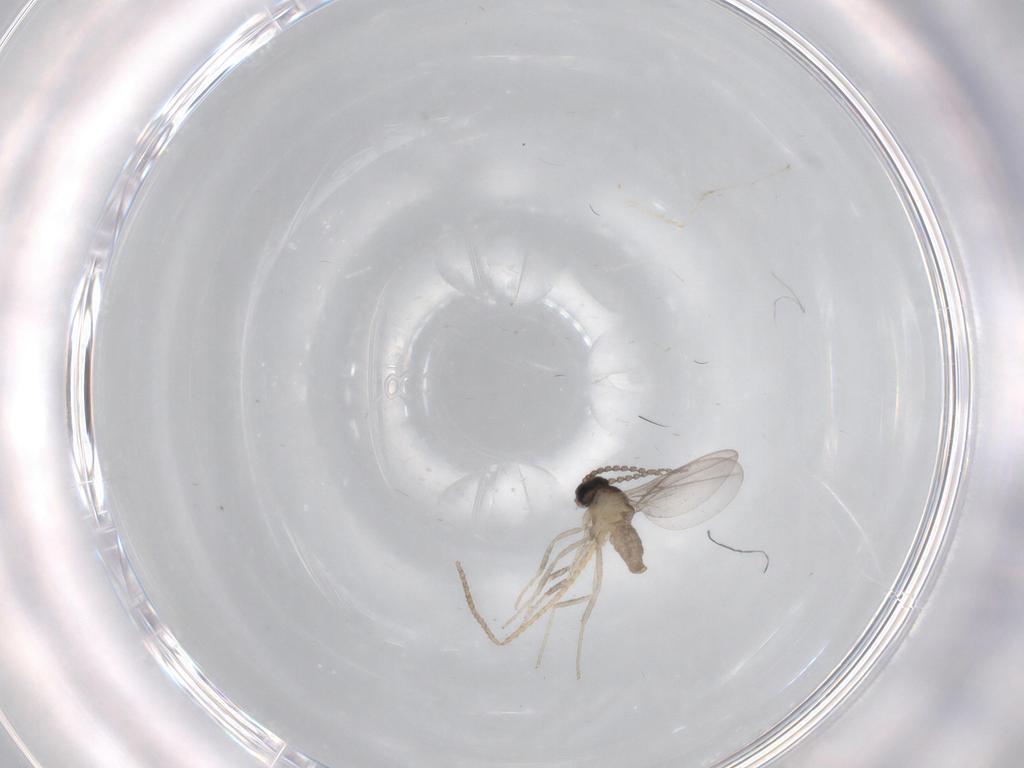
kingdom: Animalia
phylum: Arthropoda
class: Insecta
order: Diptera
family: Cecidomyiidae
